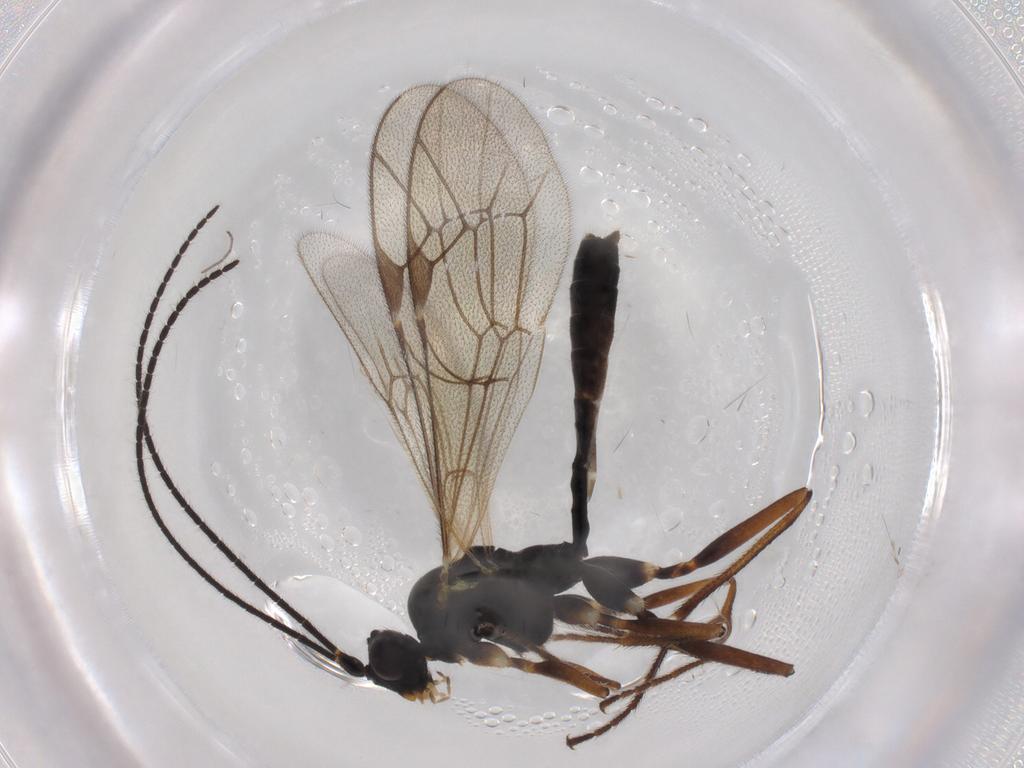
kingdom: Animalia
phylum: Arthropoda
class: Insecta
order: Hymenoptera
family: Ichneumonidae
